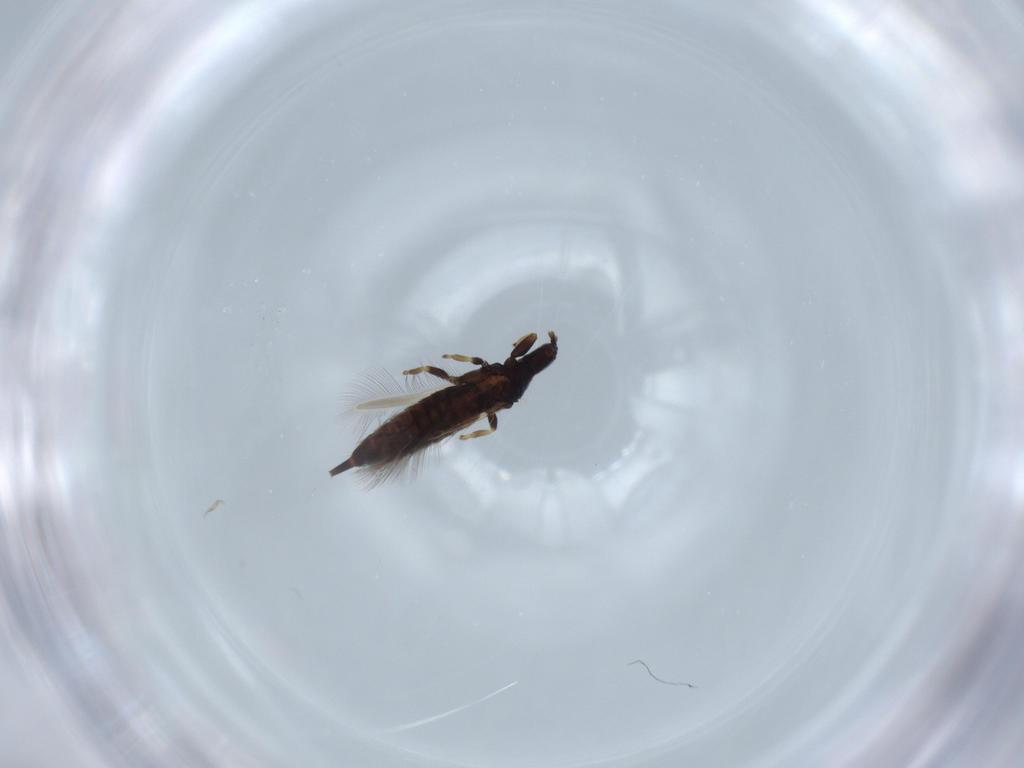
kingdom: Animalia
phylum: Arthropoda
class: Insecta
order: Thysanoptera
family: Phlaeothripidae
